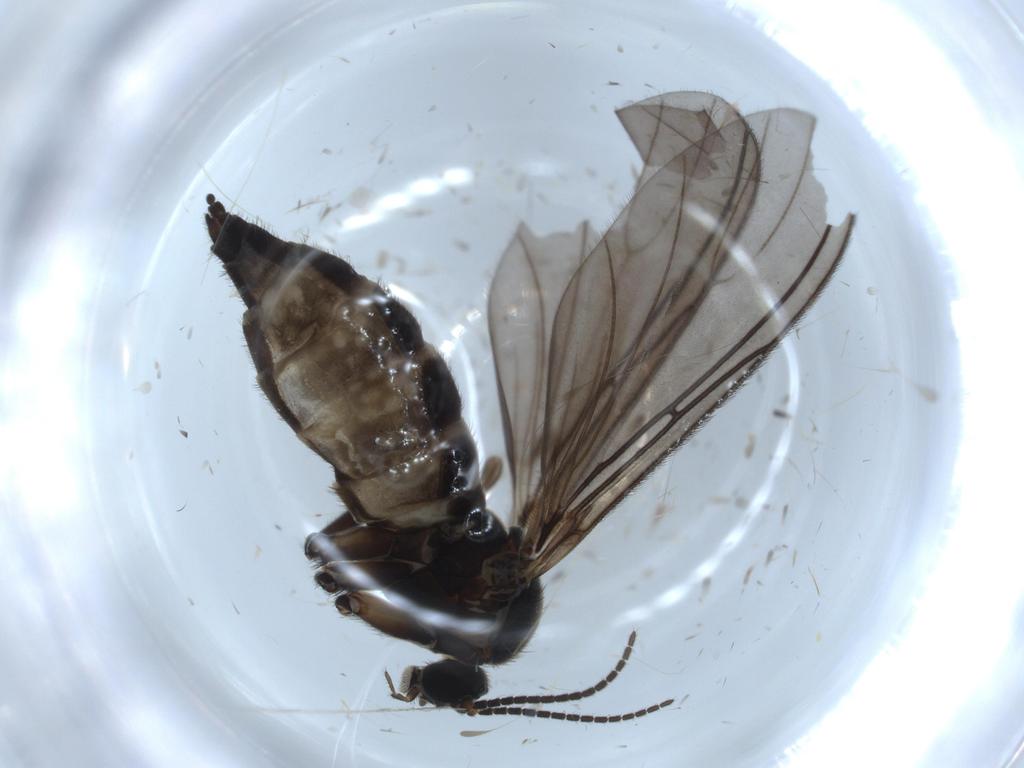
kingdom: Animalia
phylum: Arthropoda
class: Insecta
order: Diptera
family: Sciaridae
